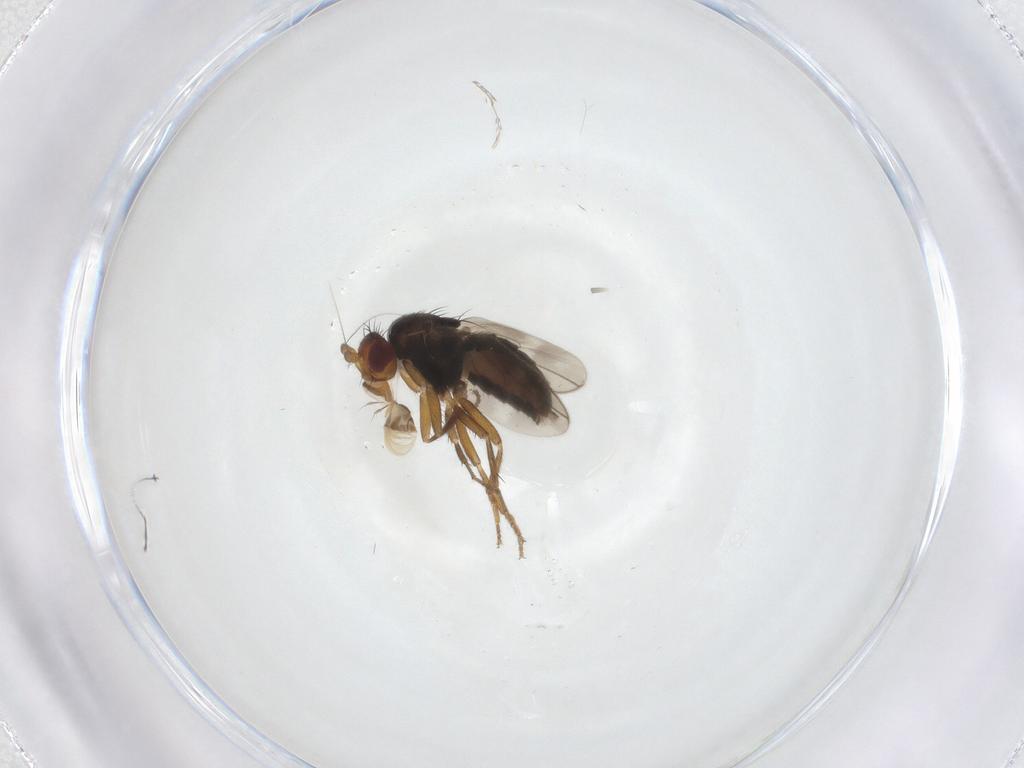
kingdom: Animalia
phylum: Arthropoda
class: Insecta
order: Diptera
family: Sphaeroceridae
